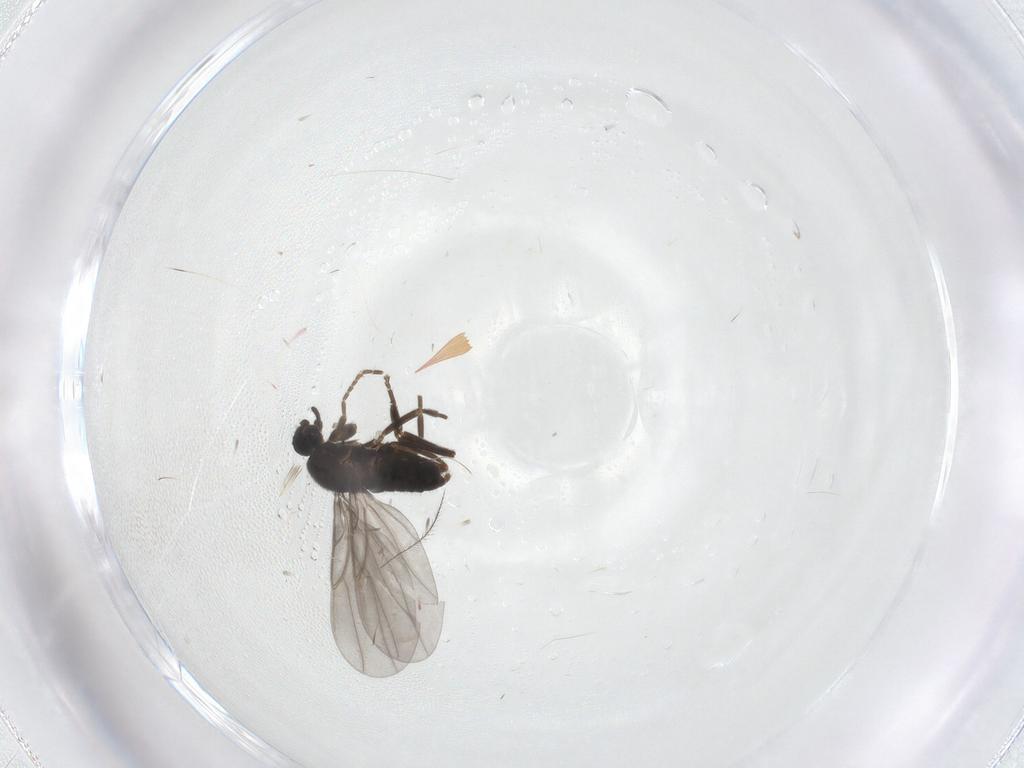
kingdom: Animalia
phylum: Arthropoda
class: Insecta
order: Diptera
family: Phoridae
